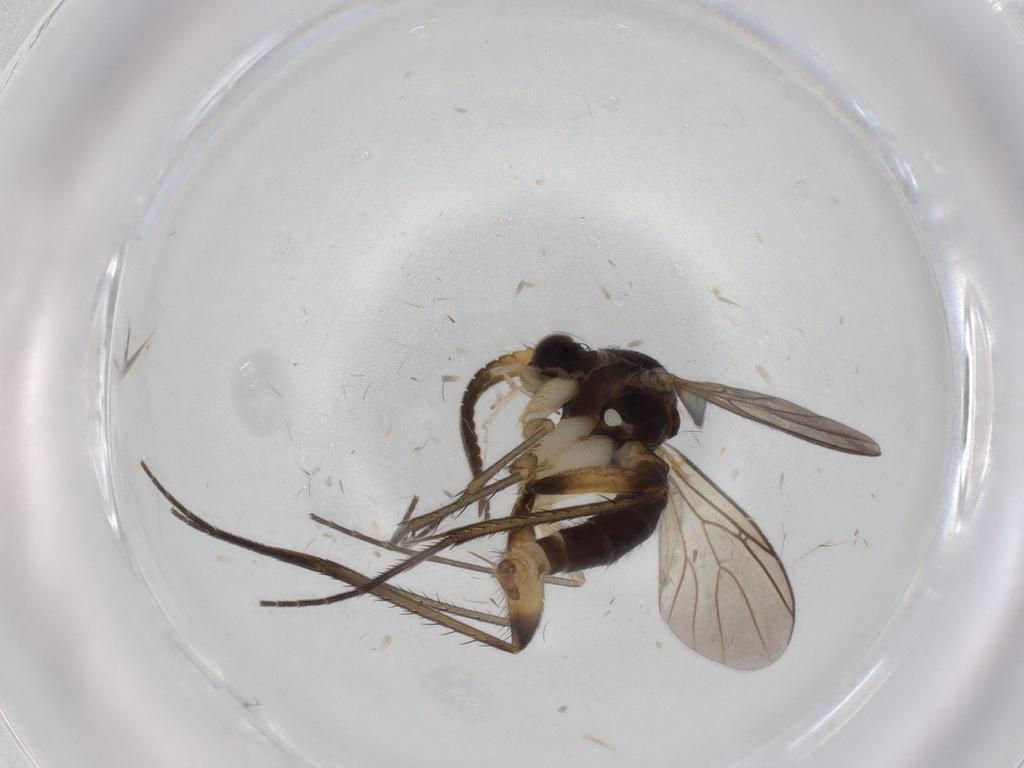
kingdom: Animalia
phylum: Arthropoda
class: Insecta
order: Diptera
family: Chironomidae
